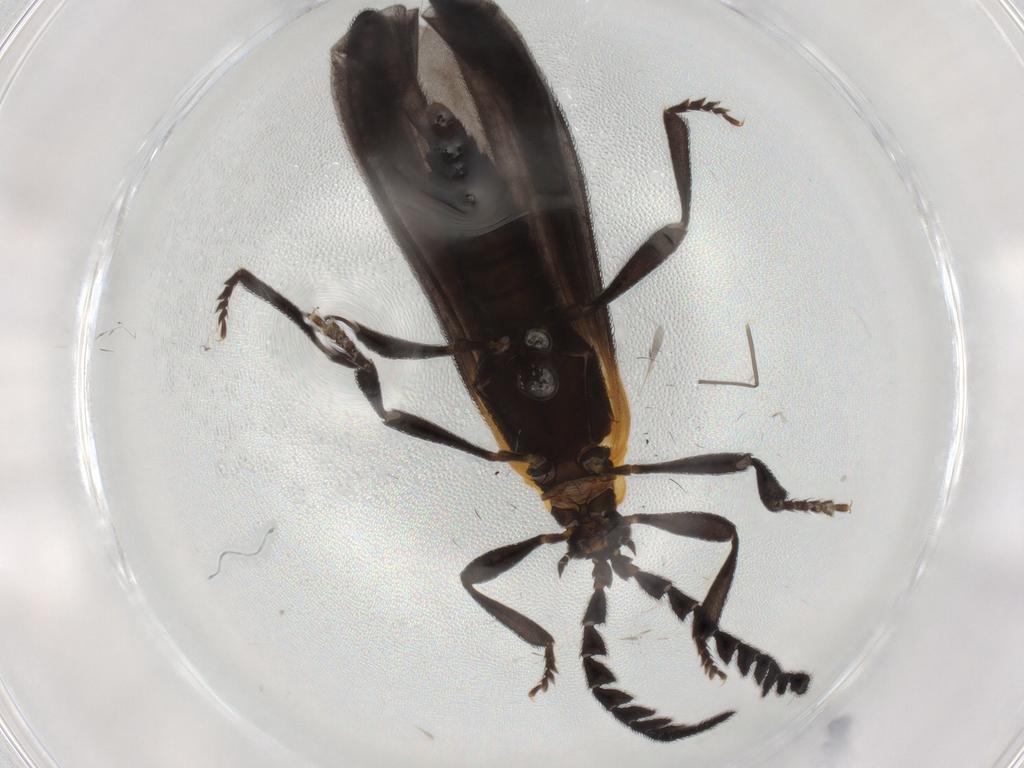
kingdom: Animalia
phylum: Arthropoda
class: Insecta
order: Coleoptera
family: Lycidae
